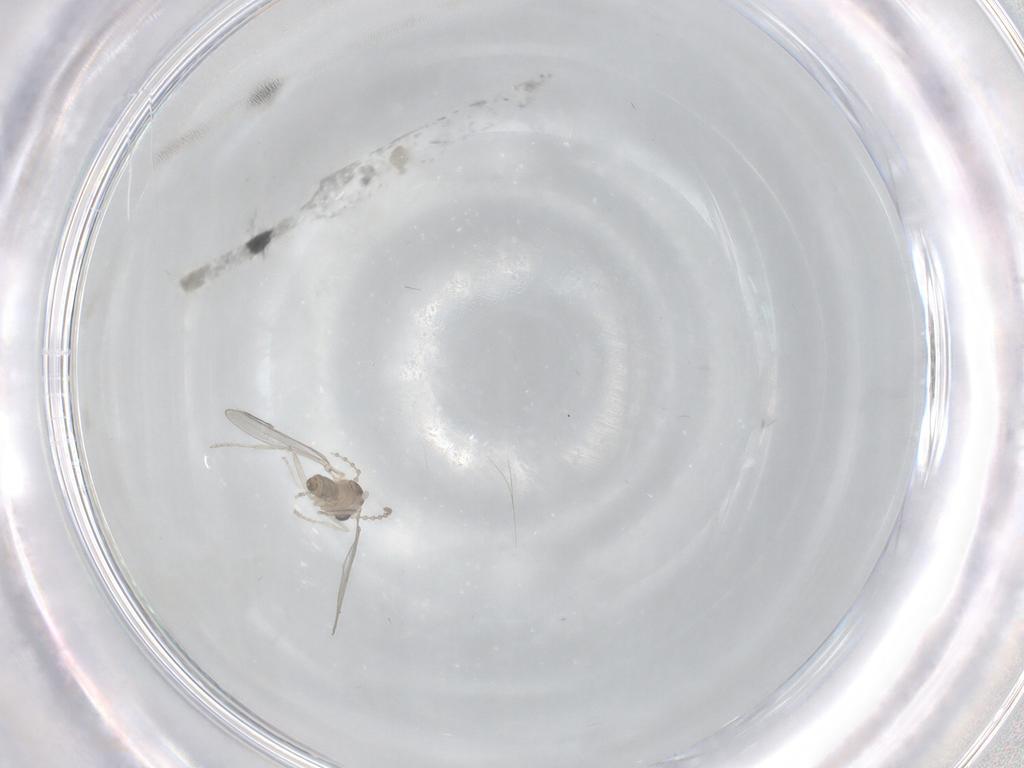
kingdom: Animalia
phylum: Arthropoda
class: Insecta
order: Diptera
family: Cecidomyiidae
